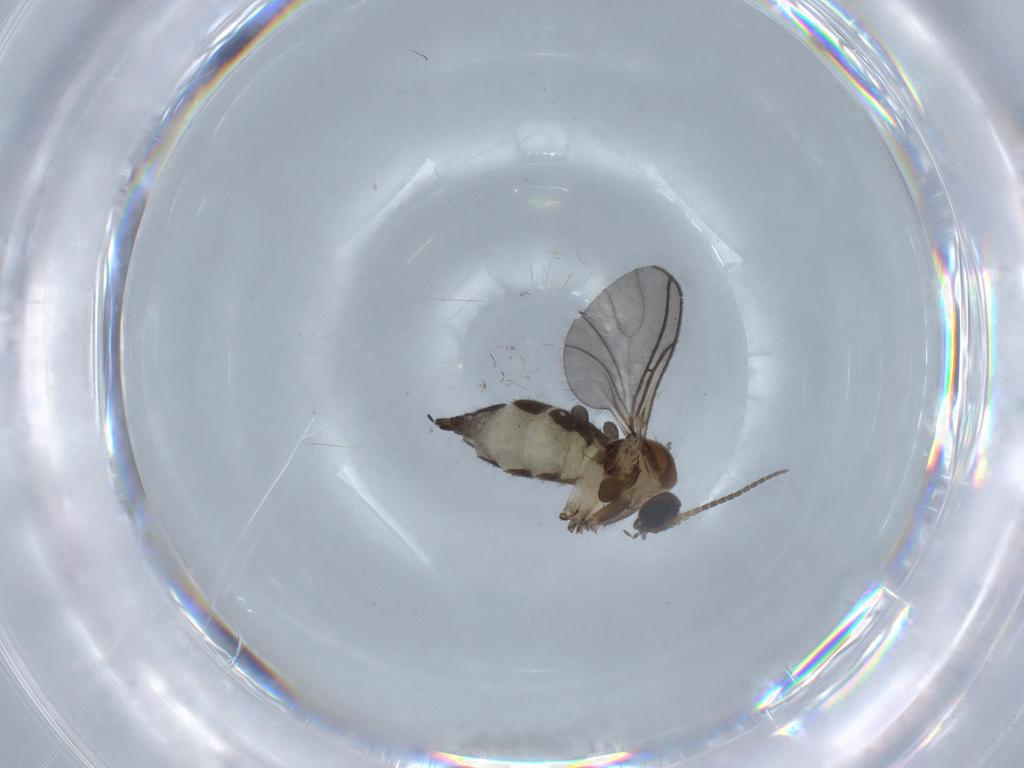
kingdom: Animalia
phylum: Arthropoda
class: Insecta
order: Diptera
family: Sciaridae
